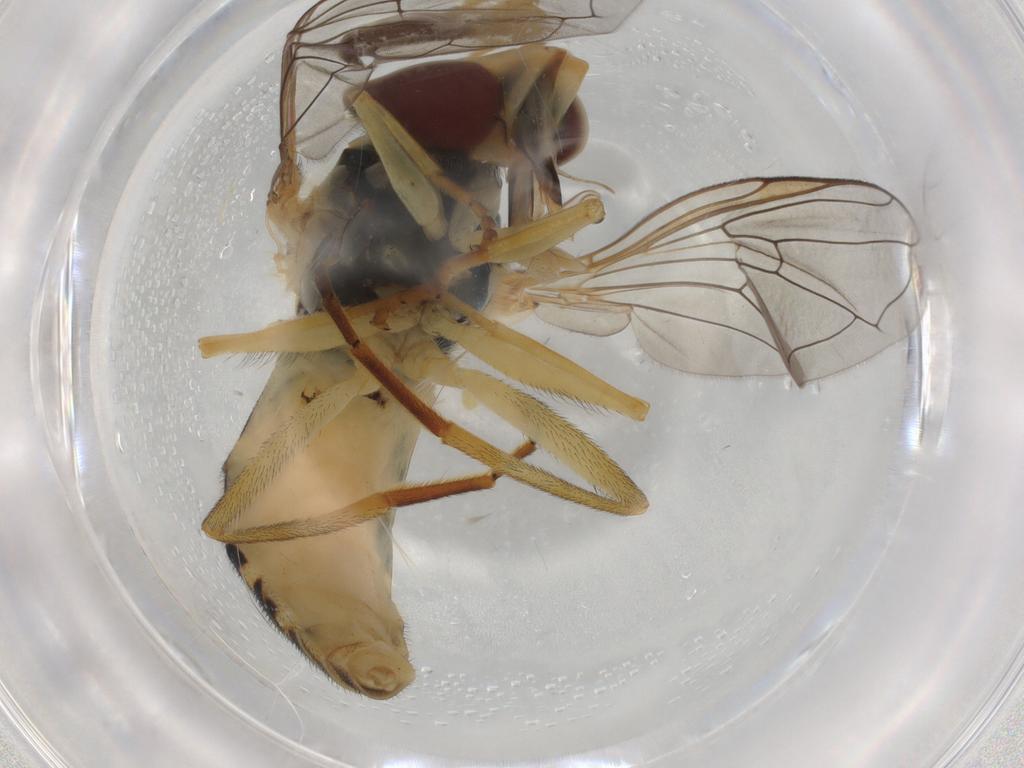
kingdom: Animalia
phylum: Arthropoda
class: Insecta
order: Diptera
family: Syrphidae
